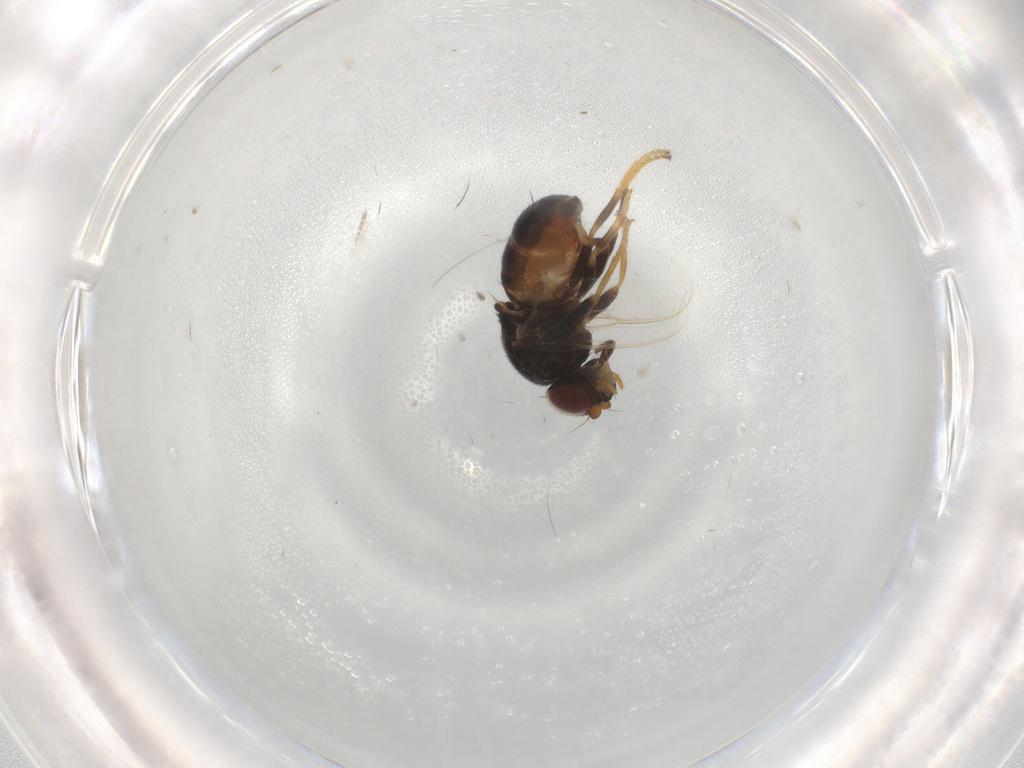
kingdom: Animalia
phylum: Arthropoda
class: Insecta
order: Diptera
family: Chloropidae
